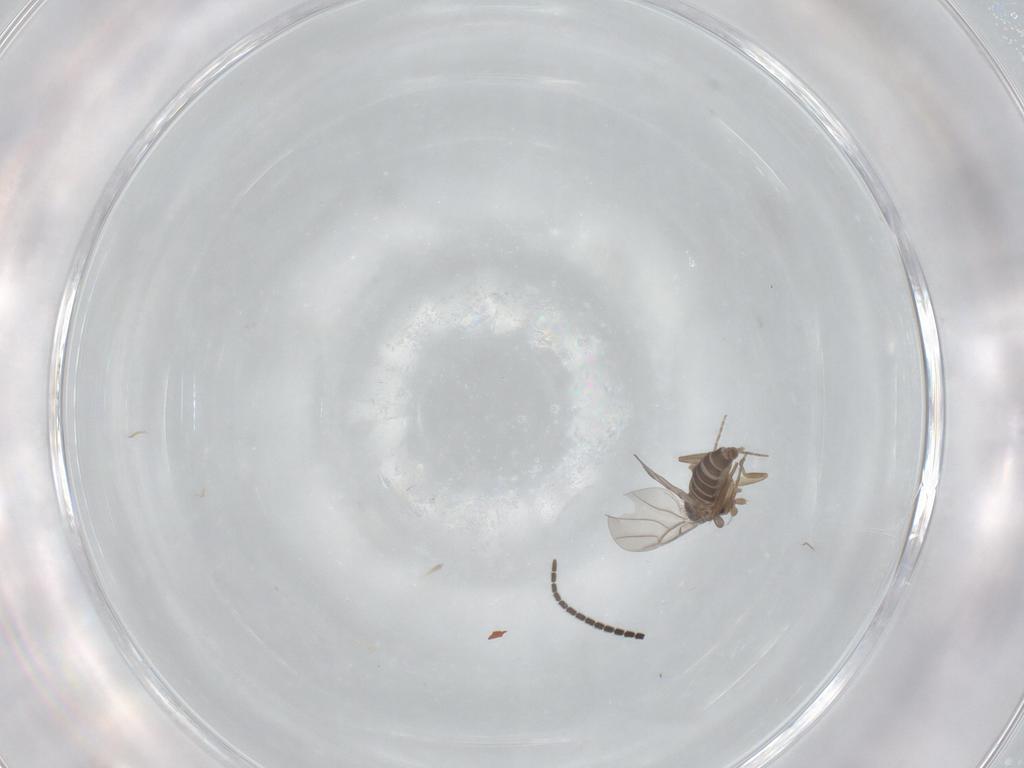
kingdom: Animalia
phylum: Arthropoda
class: Insecta
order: Diptera
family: Phoridae
